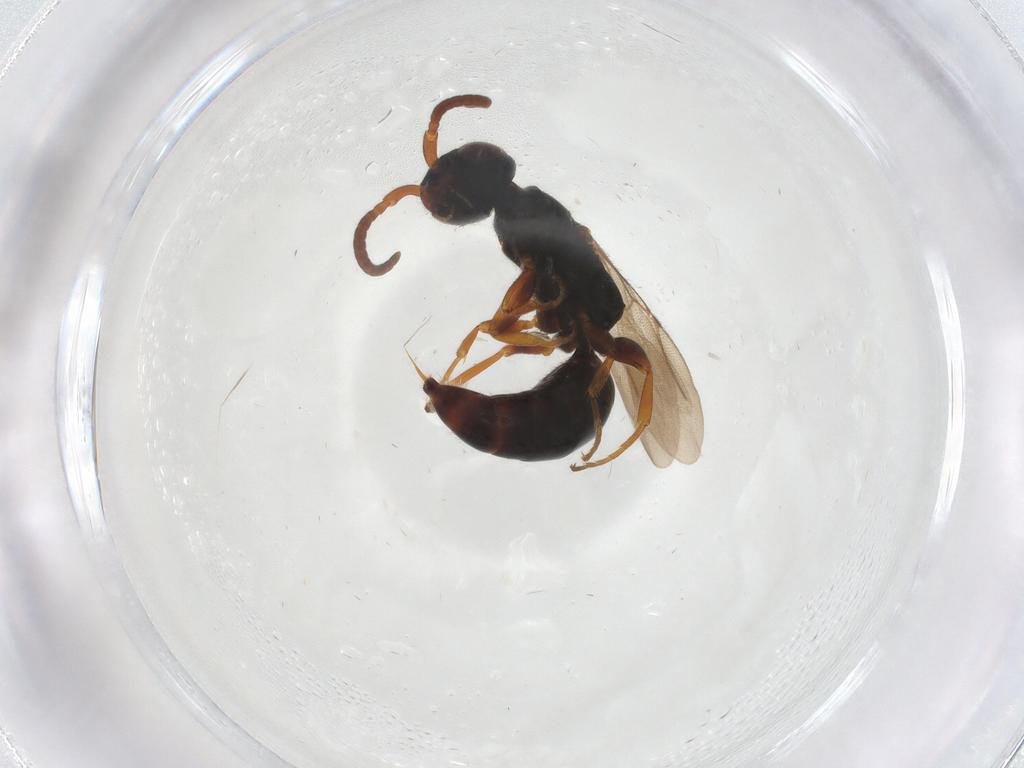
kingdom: Animalia
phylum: Arthropoda
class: Insecta
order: Hymenoptera
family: Bethylidae
